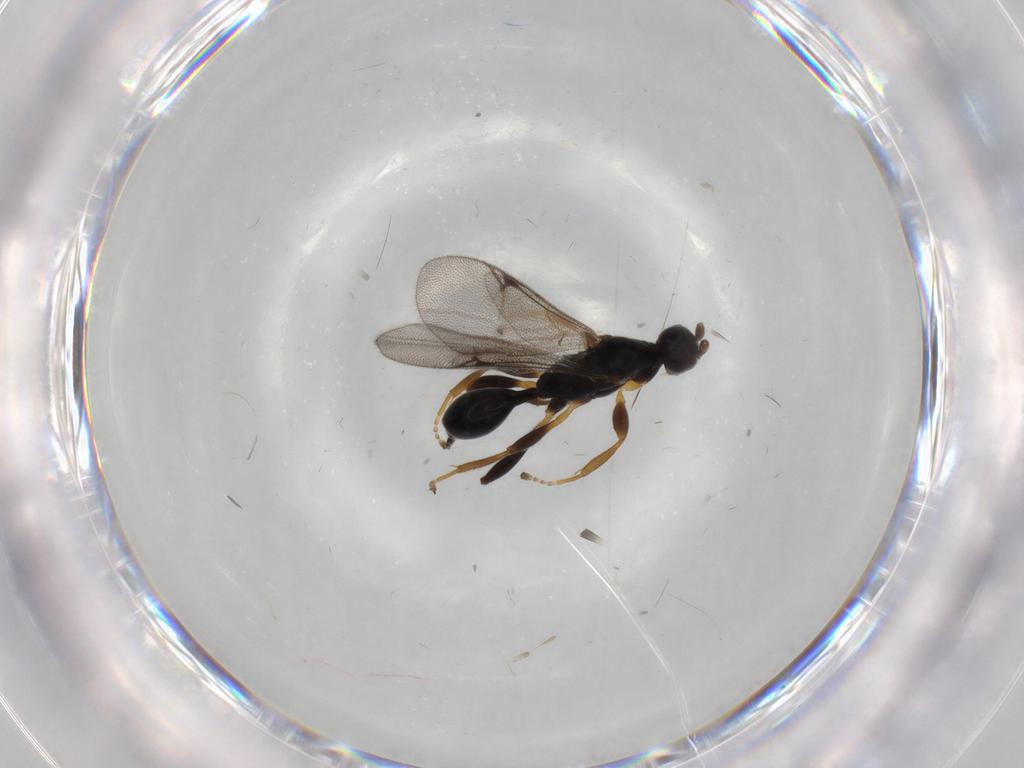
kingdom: Animalia
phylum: Arthropoda
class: Insecta
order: Hymenoptera
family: Proctotrupidae
